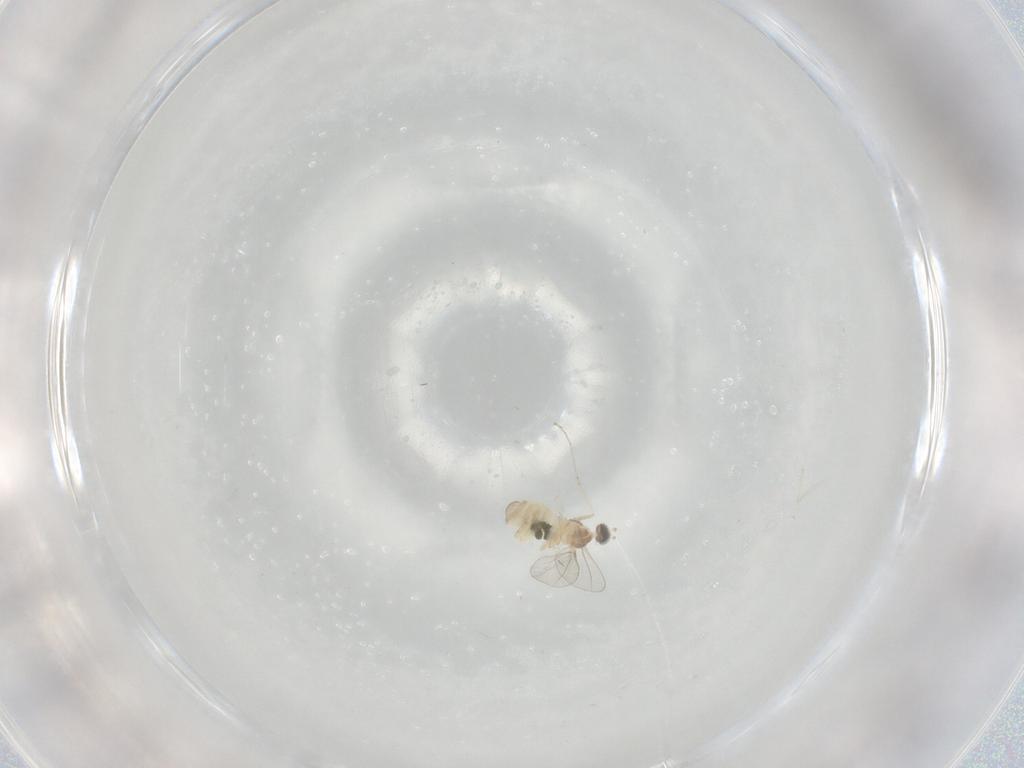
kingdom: Animalia
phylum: Arthropoda
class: Insecta
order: Diptera
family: Cecidomyiidae
